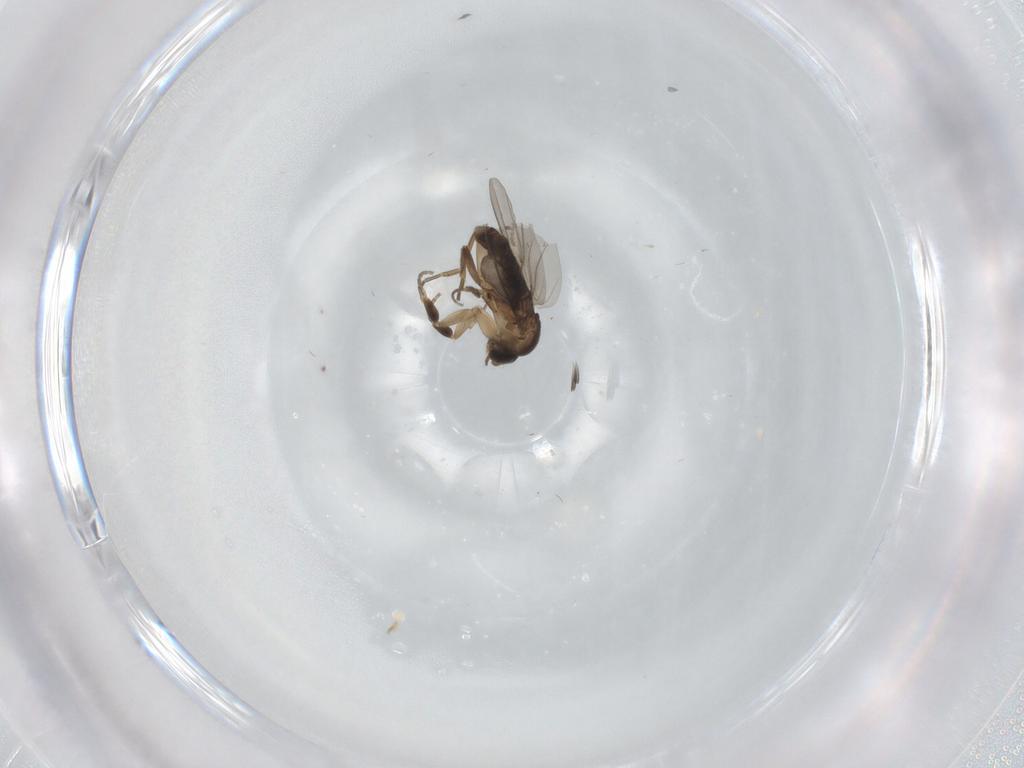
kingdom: Animalia
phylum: Arthropoda
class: Insecta
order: Diptera
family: Phoridae
